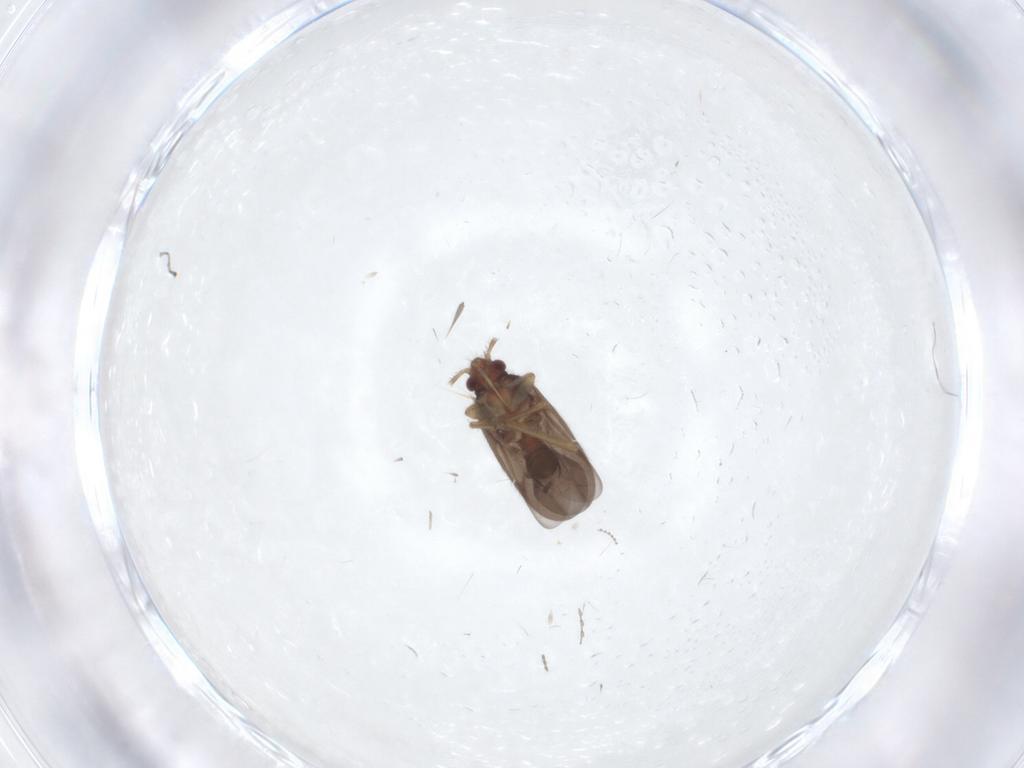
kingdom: Animalia
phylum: Arthropoda
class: Insecta
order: Hemiptera
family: Ceratocombidae
